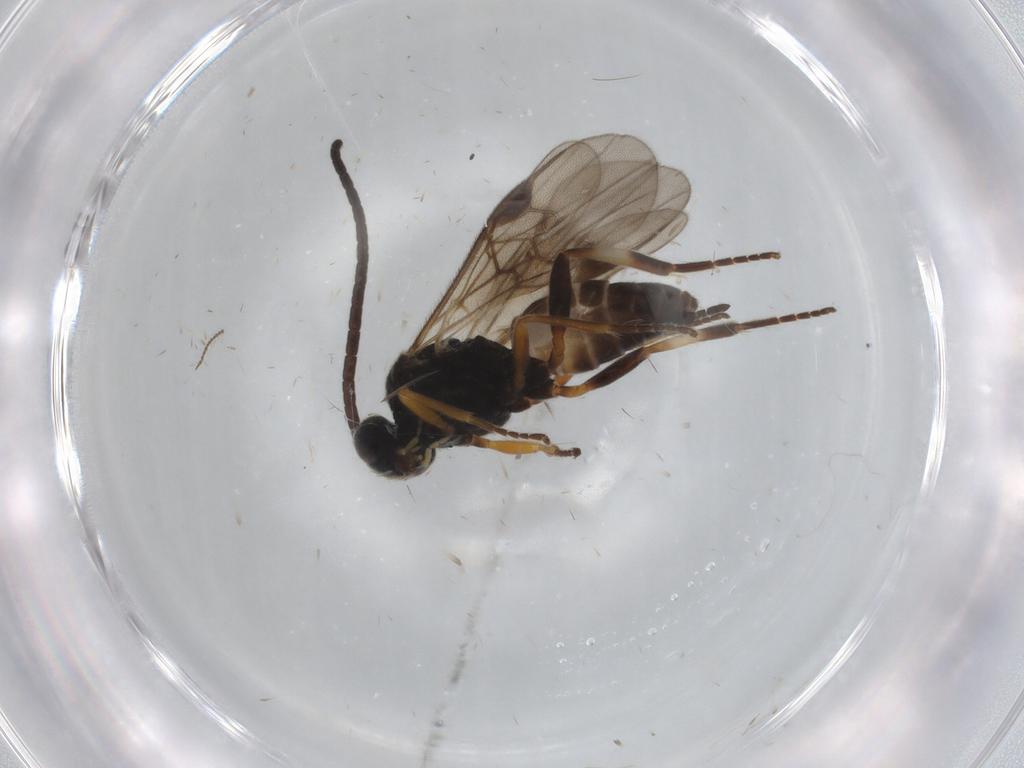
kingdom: Animalia
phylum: Arthropoda
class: Insecta
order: Hymenoptera
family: Braconidae
